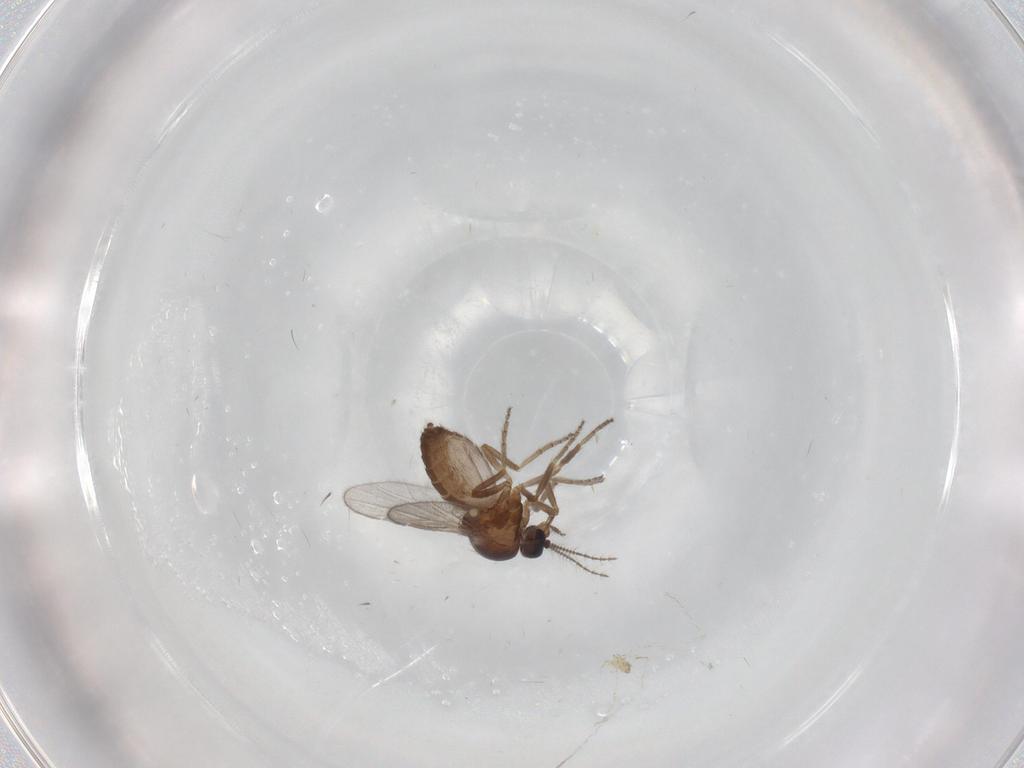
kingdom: Animalia
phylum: Arthropoda
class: Insecta
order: Diptera
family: Ceratopogonidae
